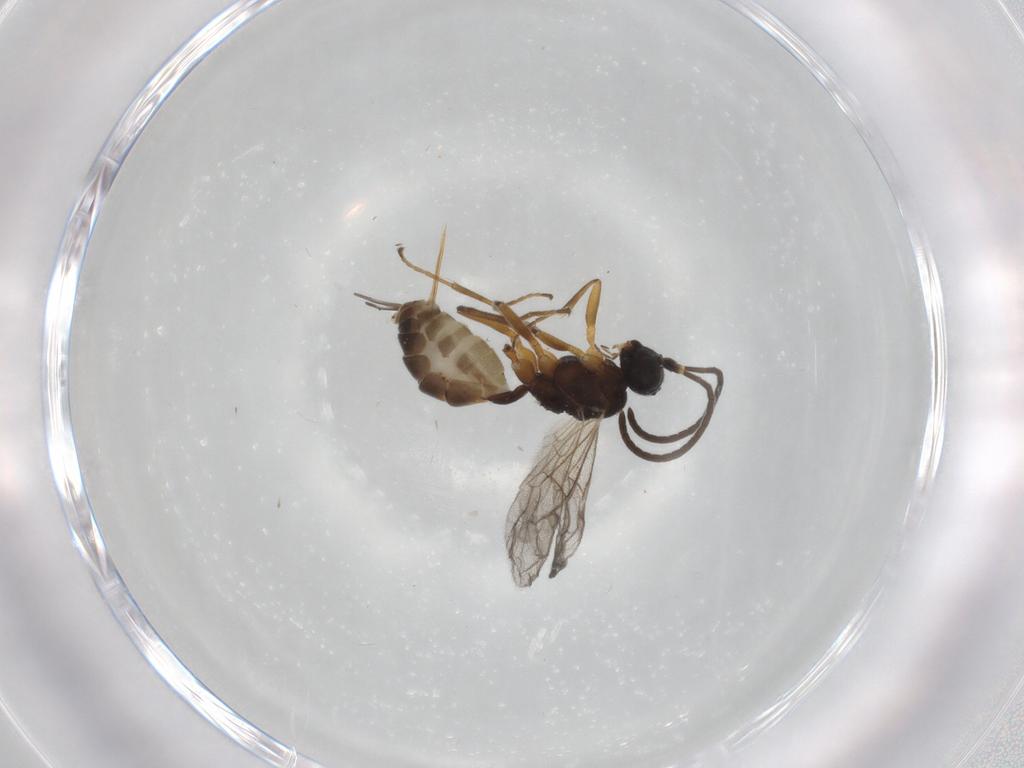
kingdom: Animalia
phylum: Arthropoda
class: Insecta
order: Hymenoptera
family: Ichneumonidae
